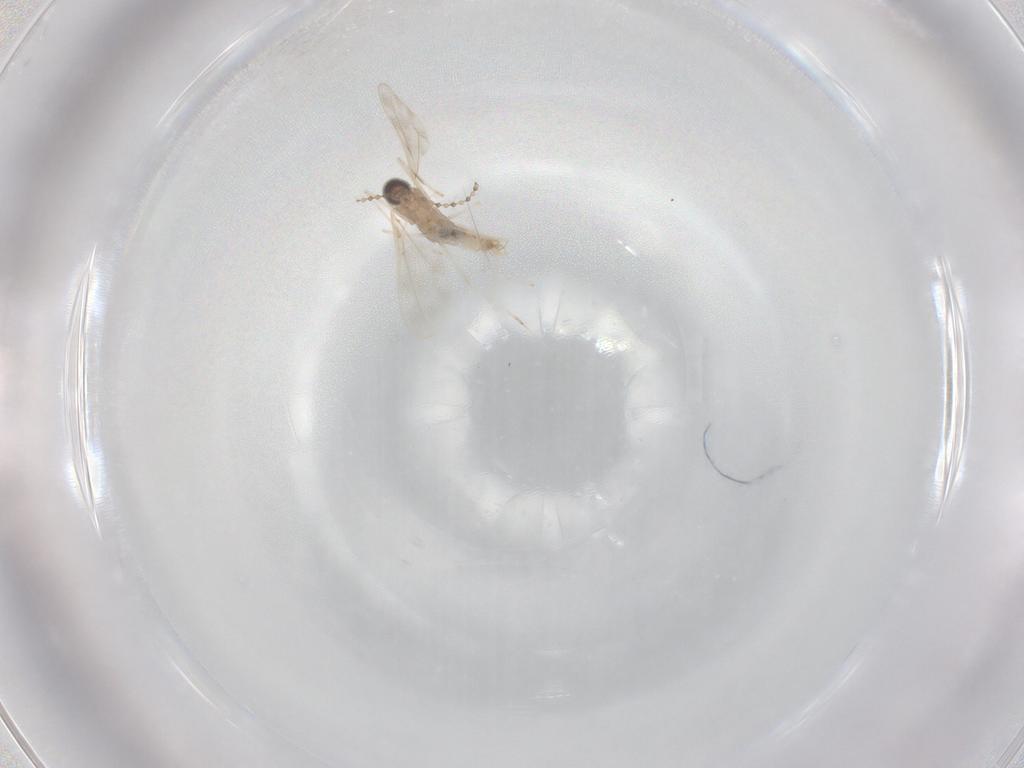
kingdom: Animalia
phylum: Arthropoda
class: Insecta
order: Diptera
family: Cecidomyiidae
